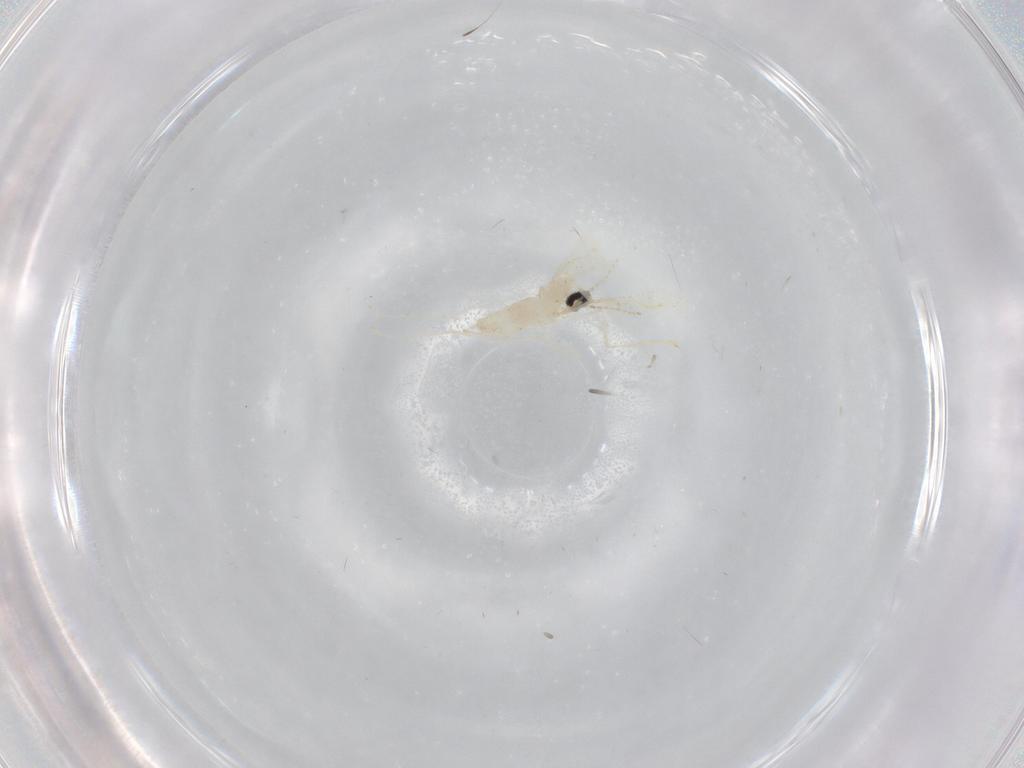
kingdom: Animalia
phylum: Arthropoda
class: Insecta
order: Diptera
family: Cecidomyiidae
